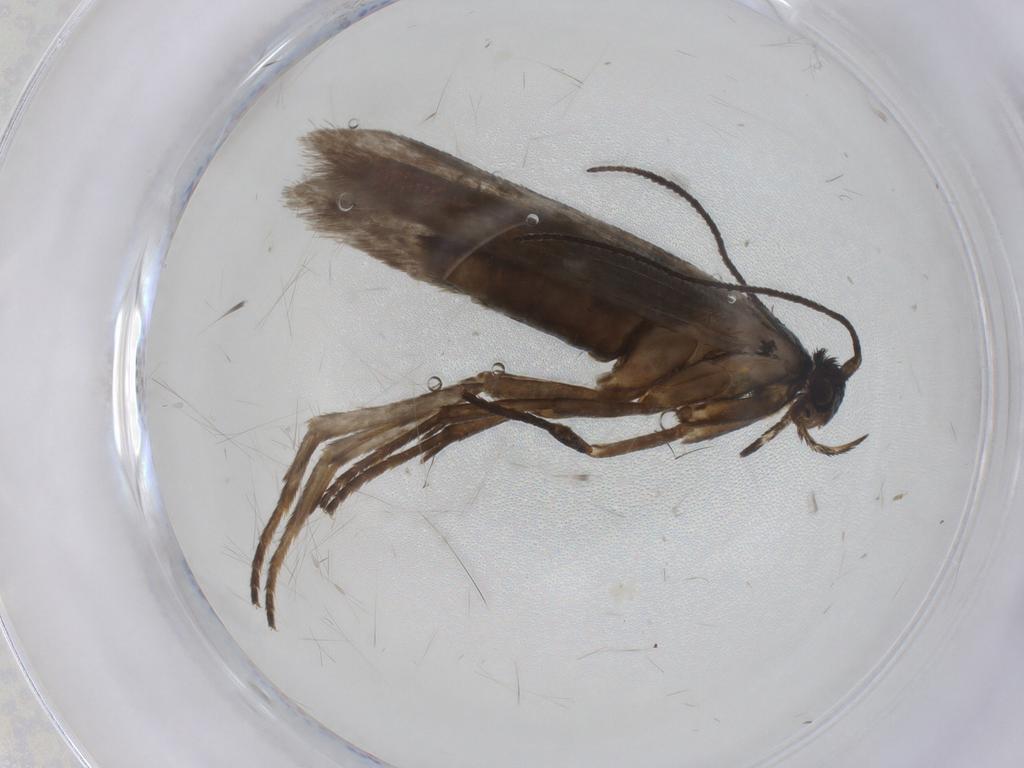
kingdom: Animalia
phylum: Arthropoda
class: Insecta
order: Lepidoptera
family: Argyresthiidae
